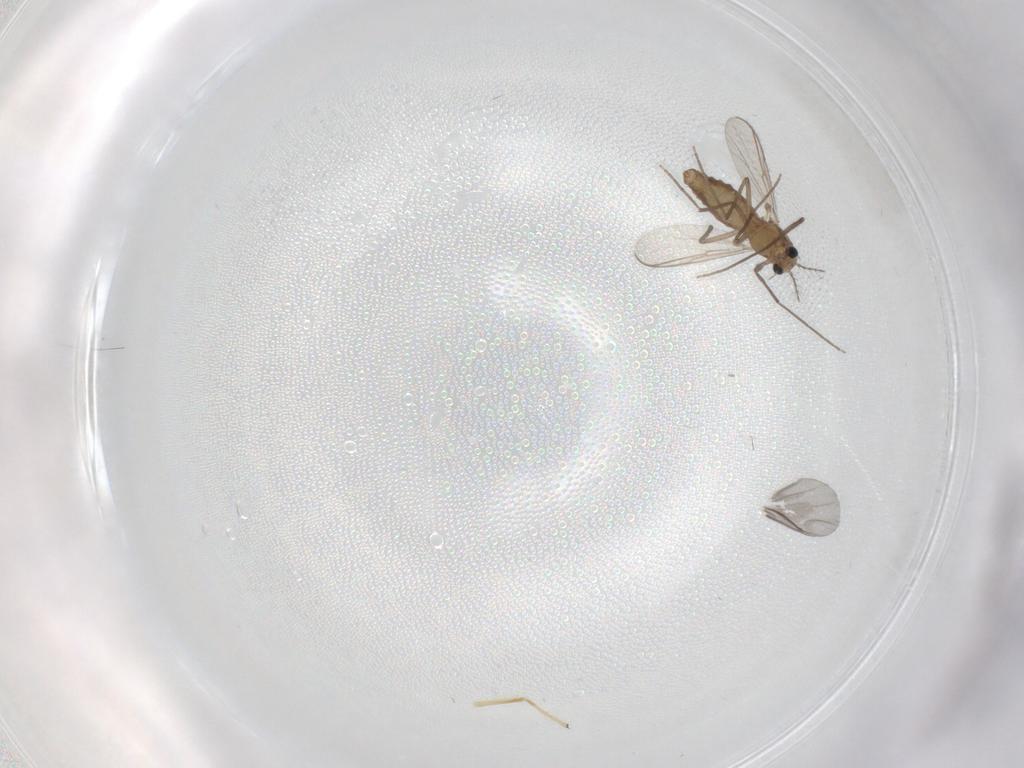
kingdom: Animalia
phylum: Arthropoda
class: Insecta
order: Diptera
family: Chironomidae
